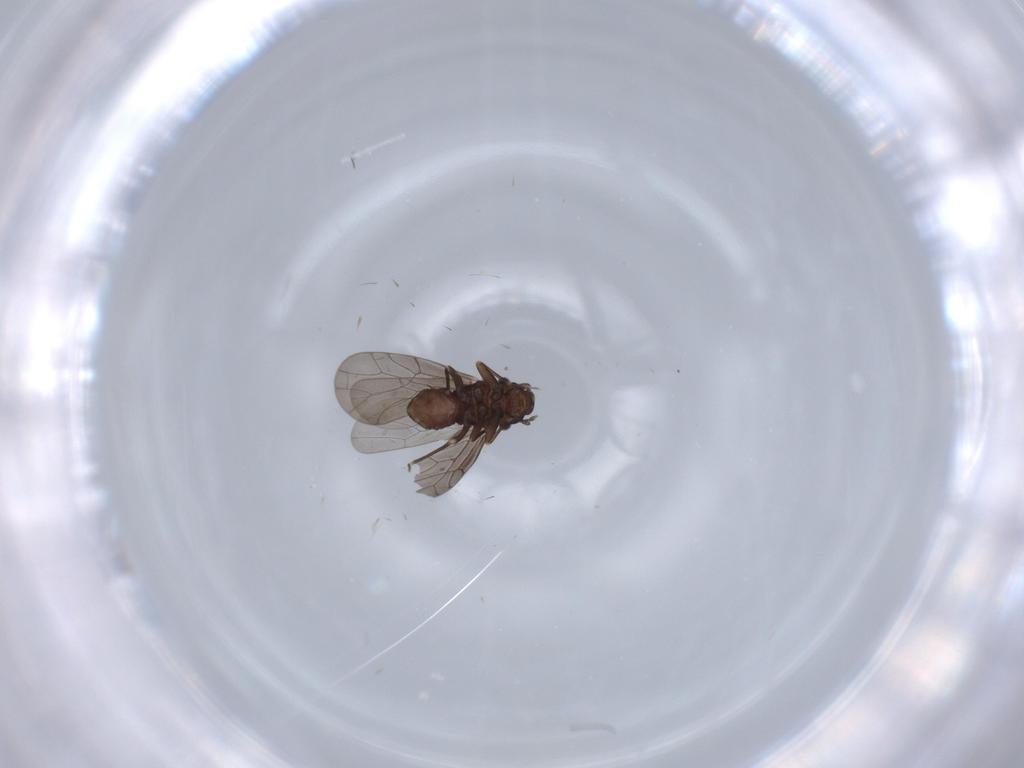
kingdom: Animalia
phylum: Arthropoda
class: Insecta
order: Psocodea
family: Lepidopsocidae
